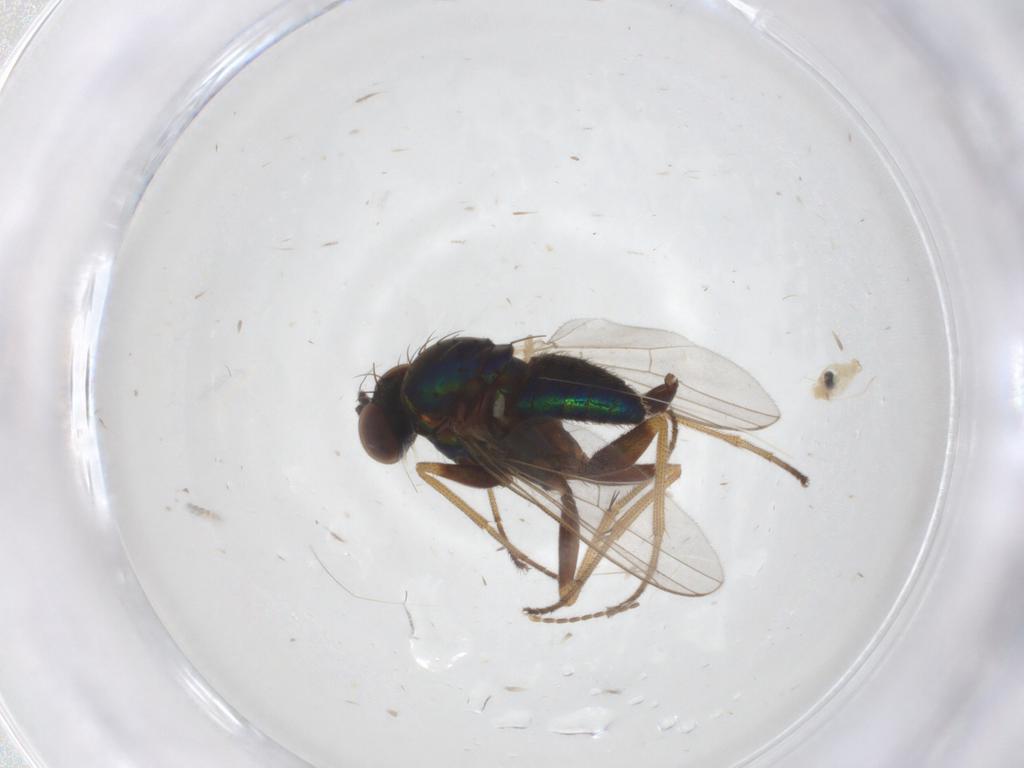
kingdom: Animalia
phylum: Arthropoda
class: Insecta
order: Diptera
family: Dolichopodidae
